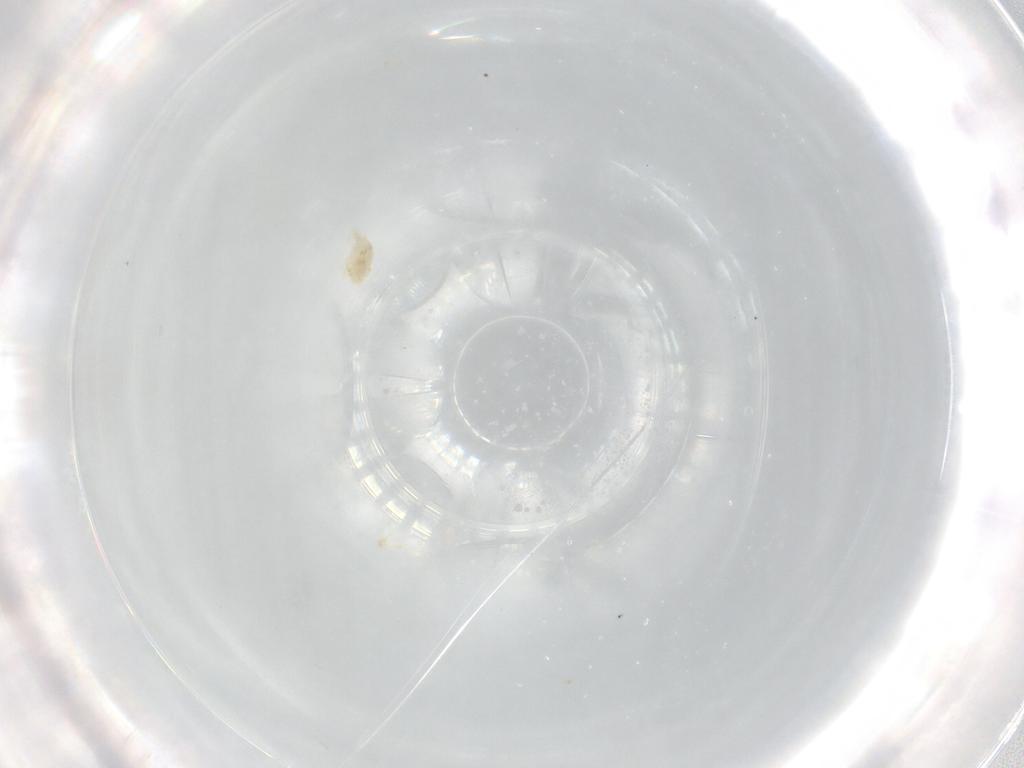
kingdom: Animalia
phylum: Arthropoda
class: Arachnida
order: Trombidiformes
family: Eupodidae
